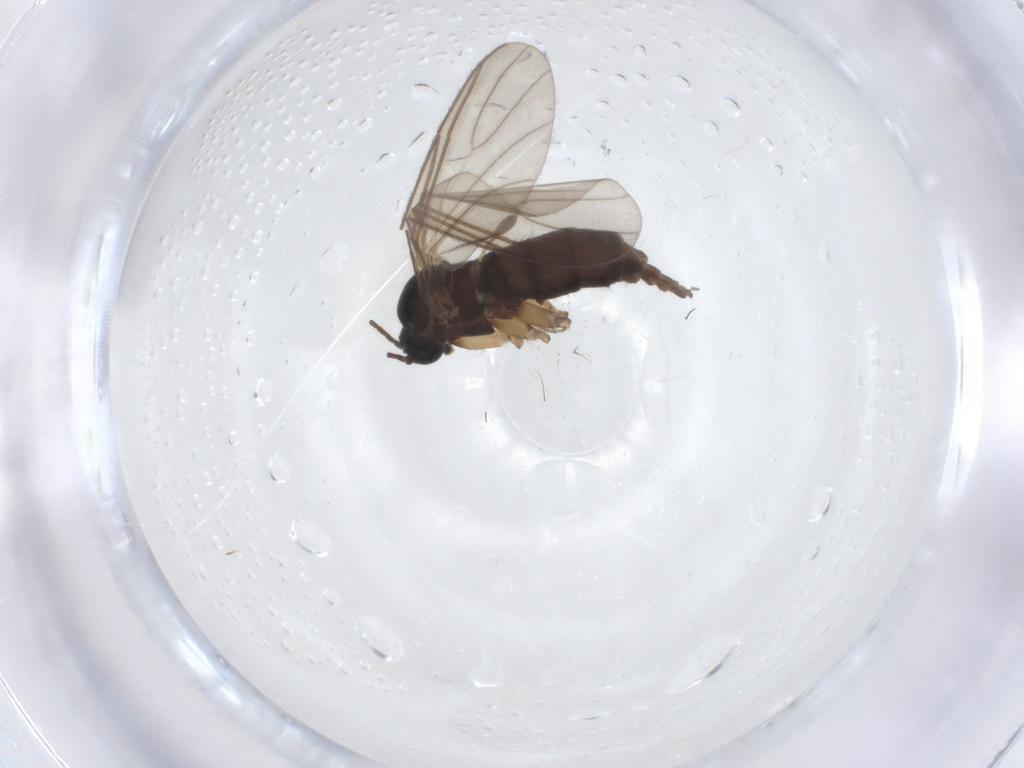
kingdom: Animalia
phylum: Arthropoda
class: Insecta
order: Diptera
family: Sciaridae
